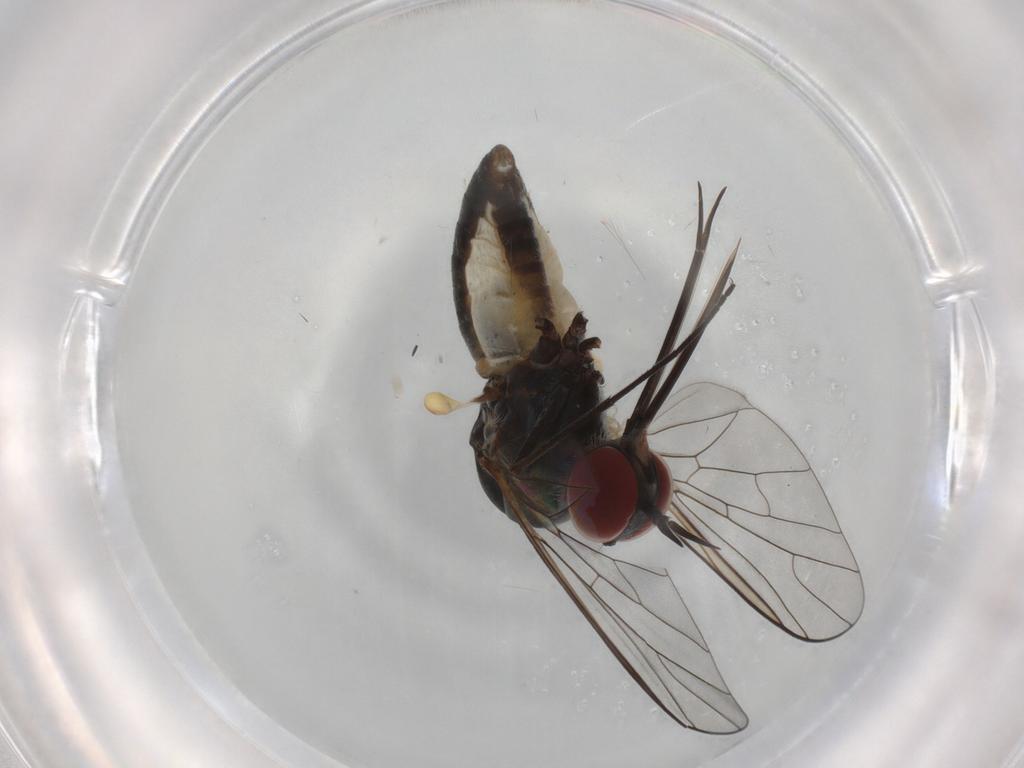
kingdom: Animalia
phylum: Arthropoda
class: Insecta
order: Diptera
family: Bombyliidae
